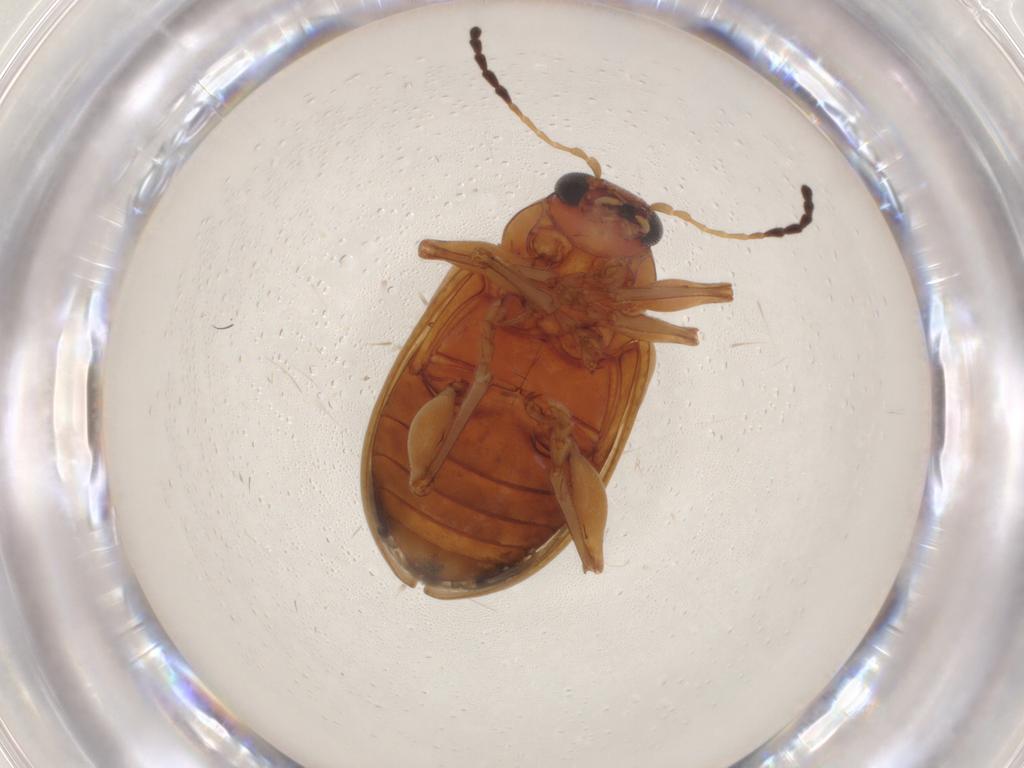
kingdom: Animalia
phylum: Arthropoda
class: Insecta
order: Coleoptera
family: Chrysomelidae
